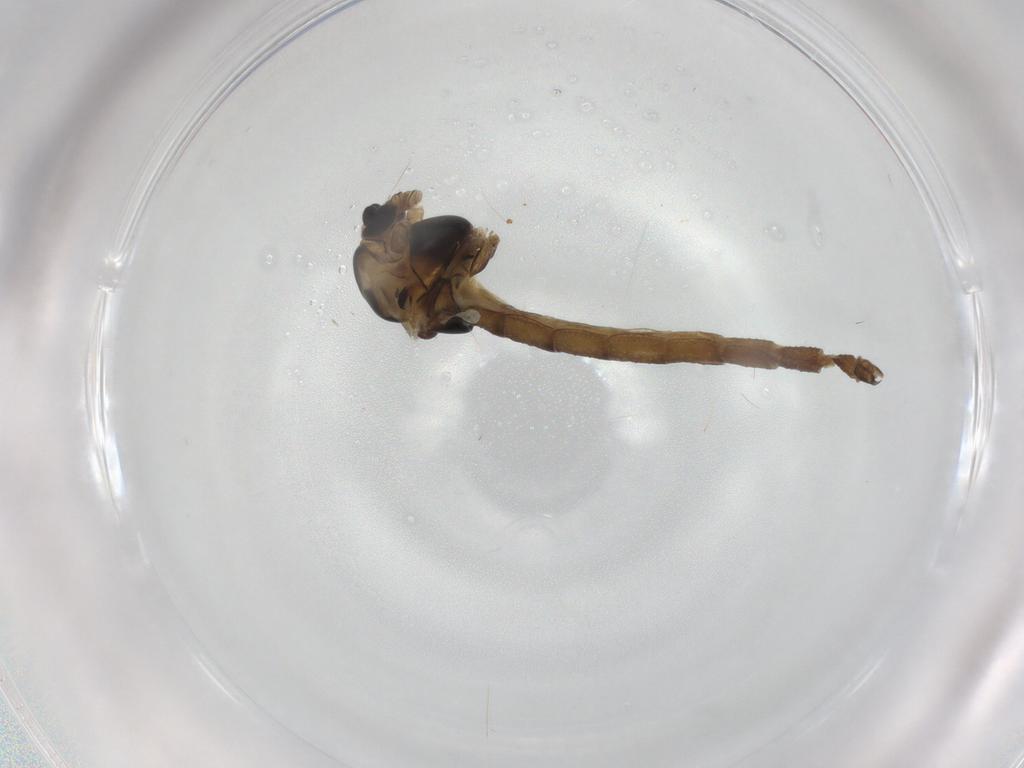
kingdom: Animalia
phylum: Arthropoda
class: Insecta
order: Diptera
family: Chironomidae
